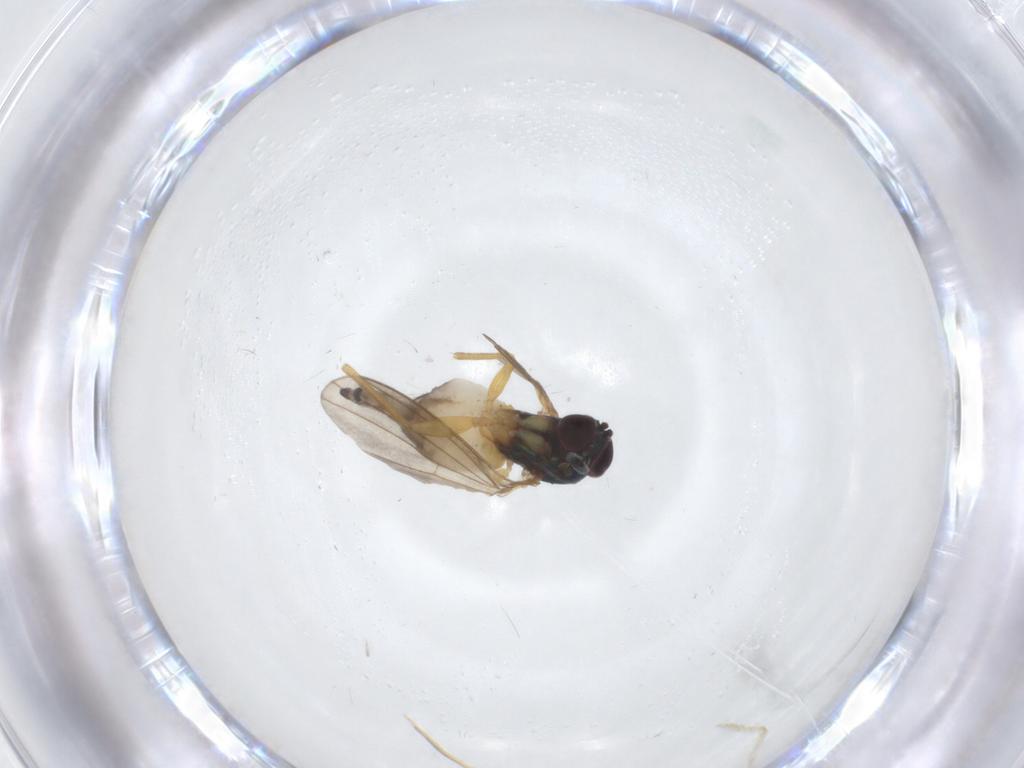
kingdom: Animalia
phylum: Arthropoda
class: Insecta
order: Diptera
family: Dolichopodidae
